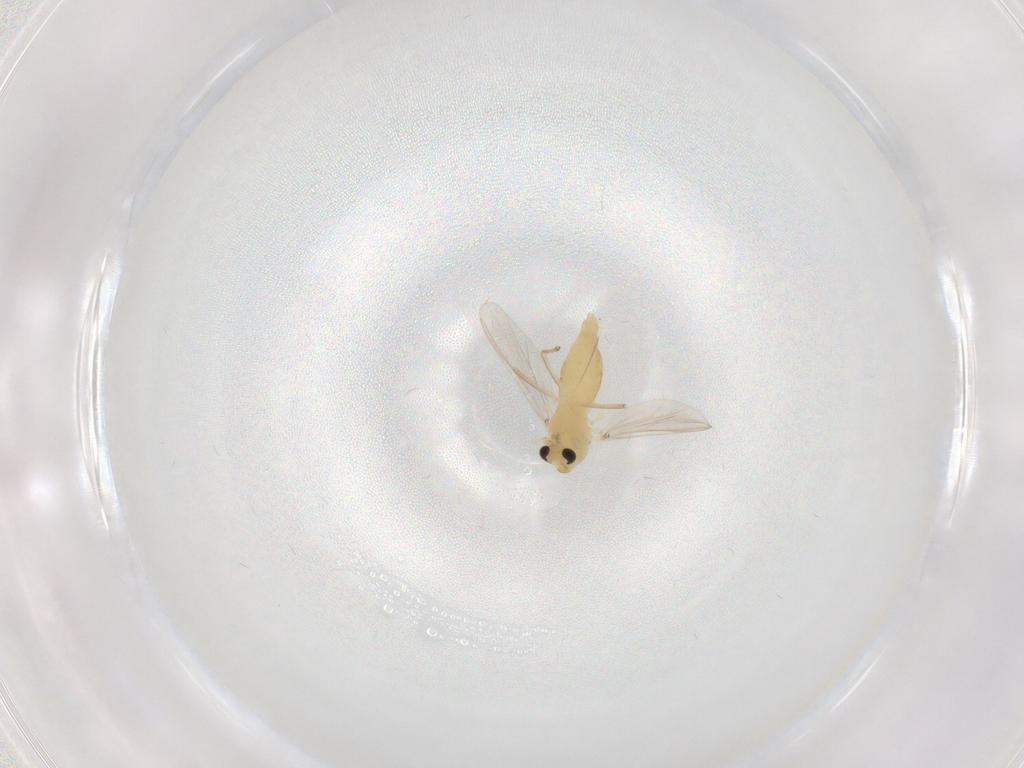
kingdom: Animalia
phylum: Arthropoda
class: Insecta
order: Diptera
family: Chironomidae
